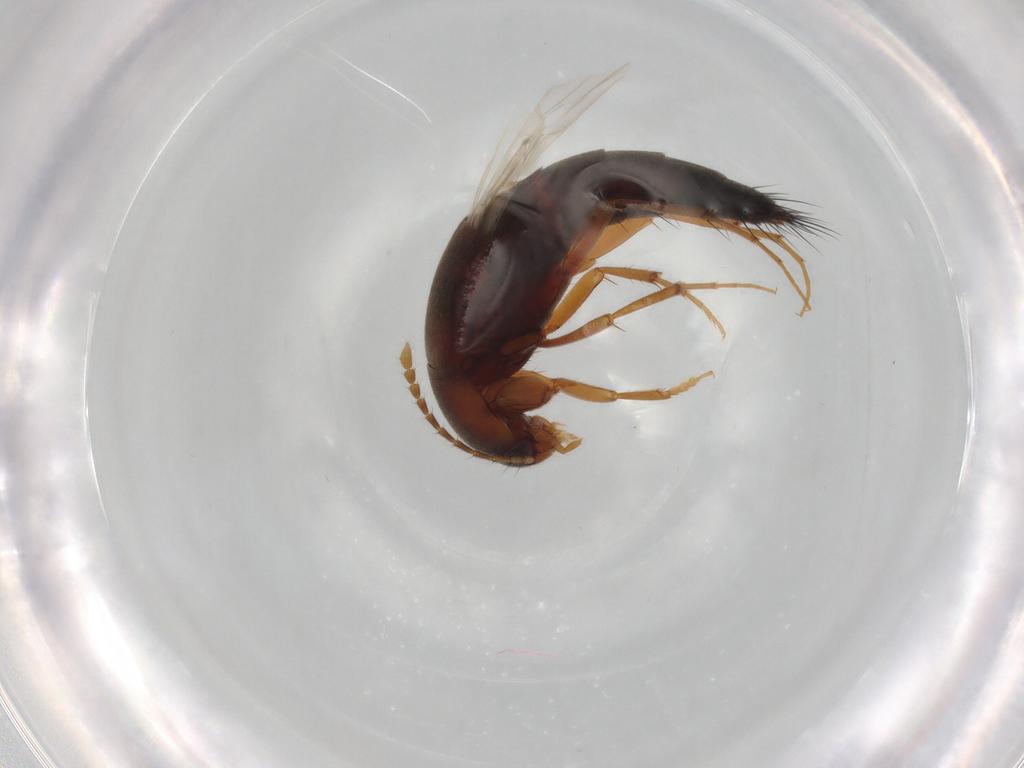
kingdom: Animalia
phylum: Arthropoda
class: Insecta
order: Coleoptera
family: Staphylinidae
